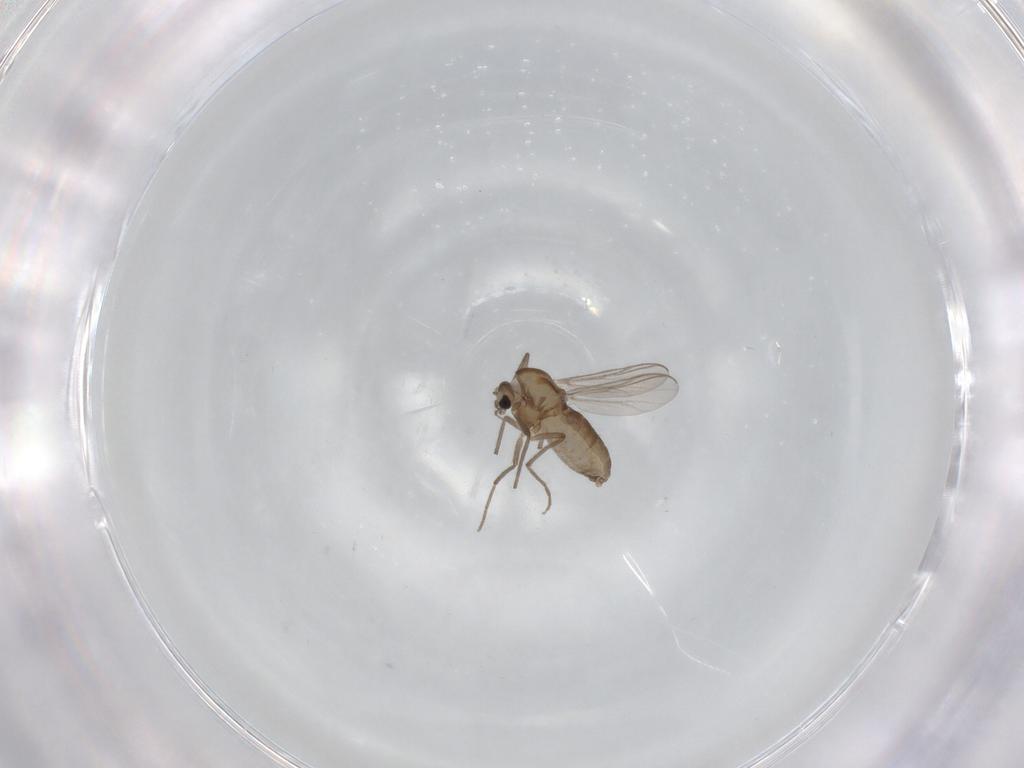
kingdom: Animalia
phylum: Arthropoda
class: Insecta
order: Diptera
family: Chironomidae
